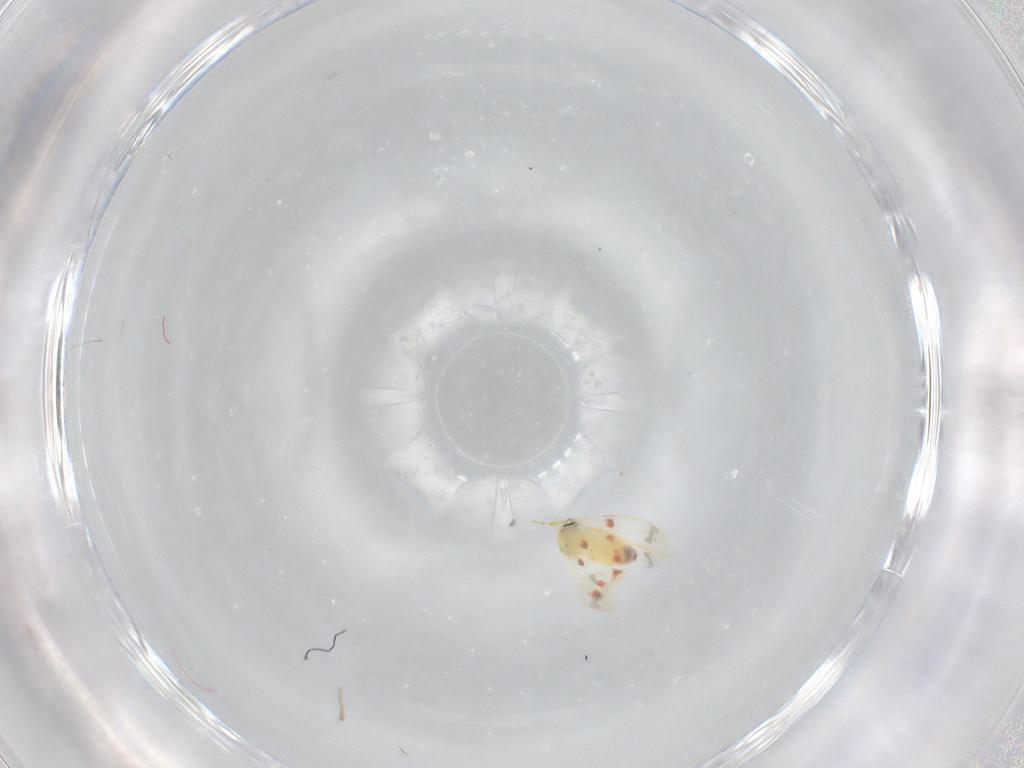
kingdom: Animalia
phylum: Arthropoda
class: Insecta
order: Hemiptera
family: Aleyrodidae
